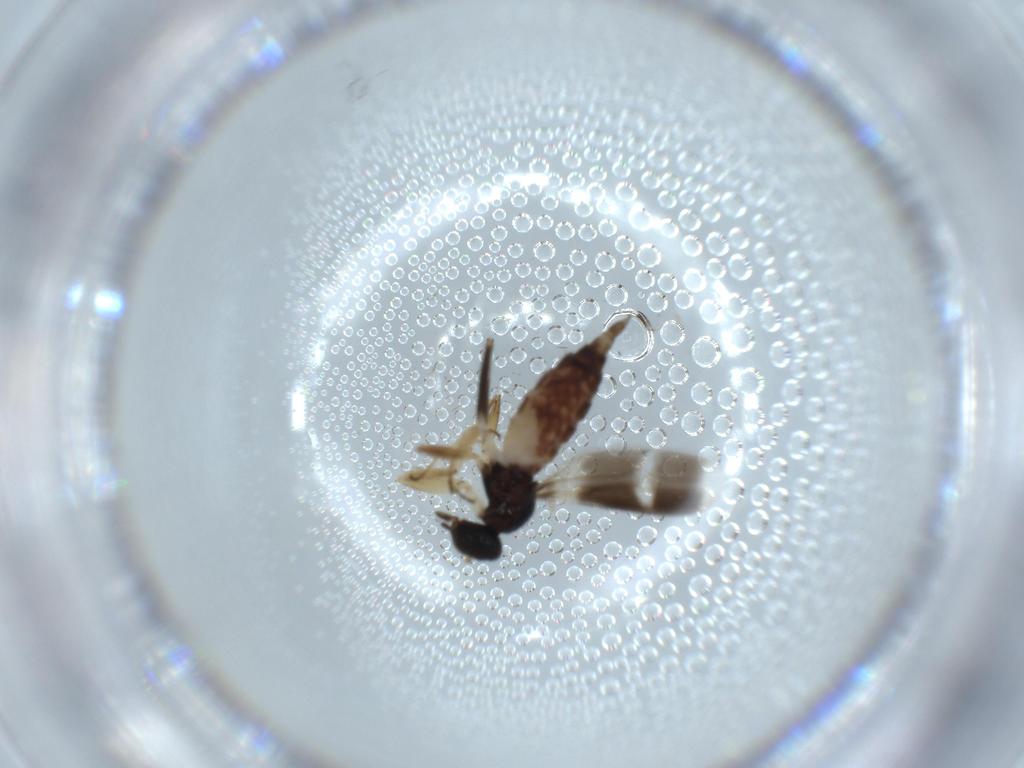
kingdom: Animalia
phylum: Arthropoda
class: Insecta
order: Diptera
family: Hybotidae
